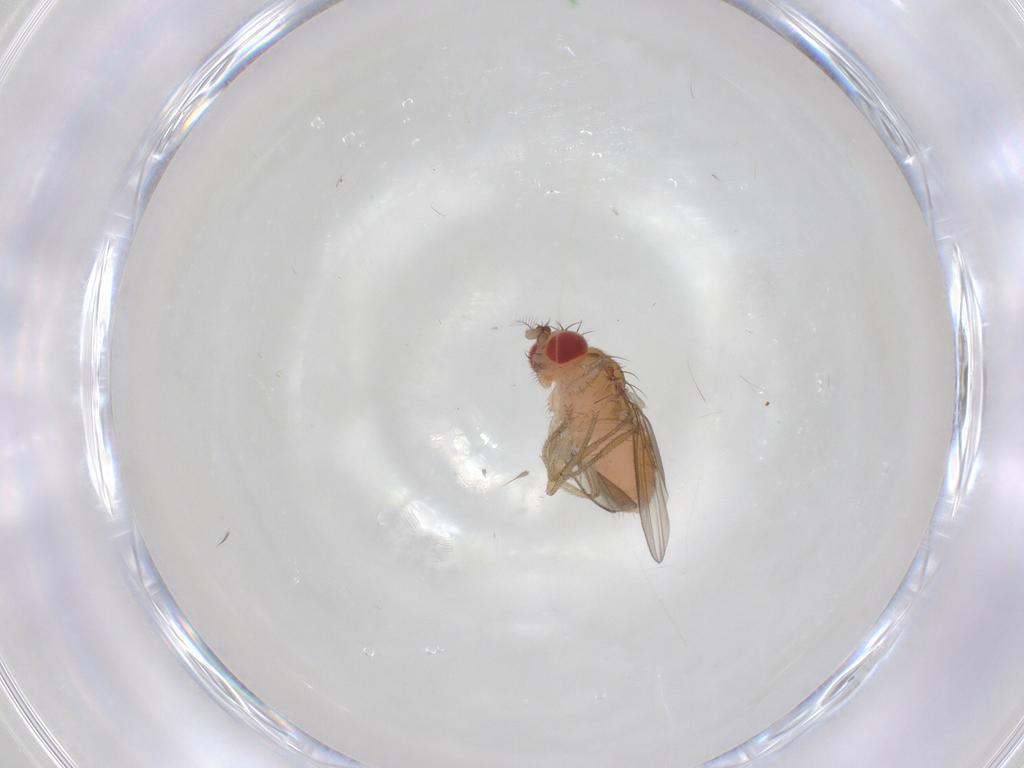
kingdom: Animalia
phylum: Arthropoda
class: Insecta
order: Diptera
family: Drosophilidae
